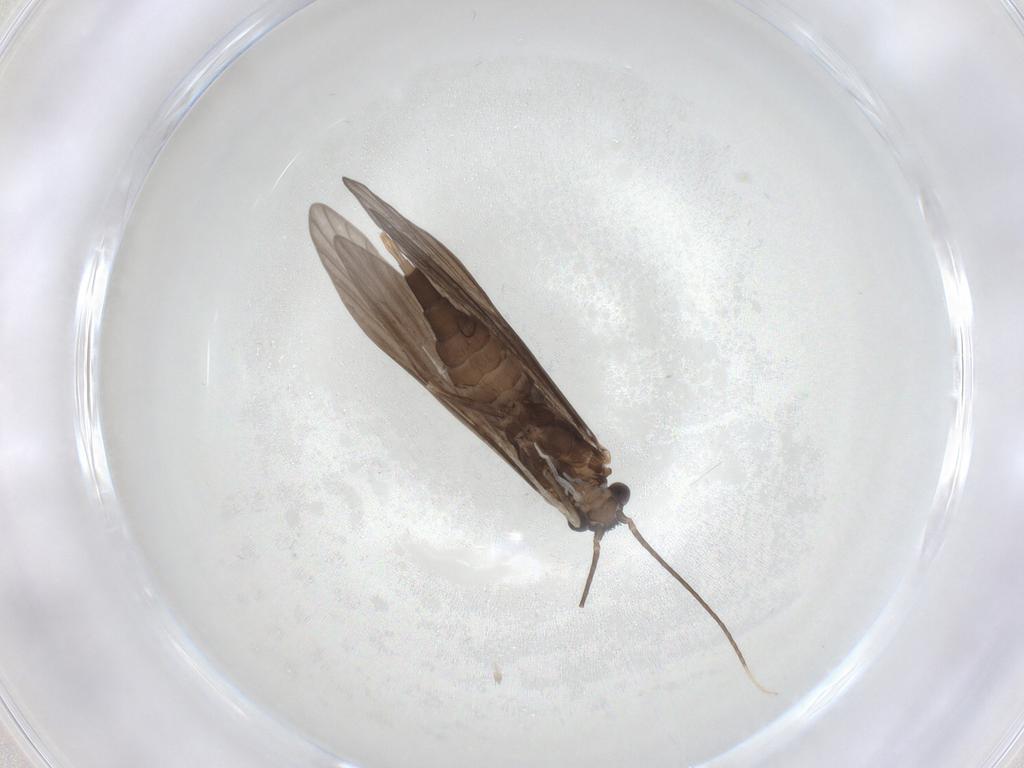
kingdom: Animalia
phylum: Arthropoda
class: Insecta
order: Trichoptera
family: Xiphocentronidae
